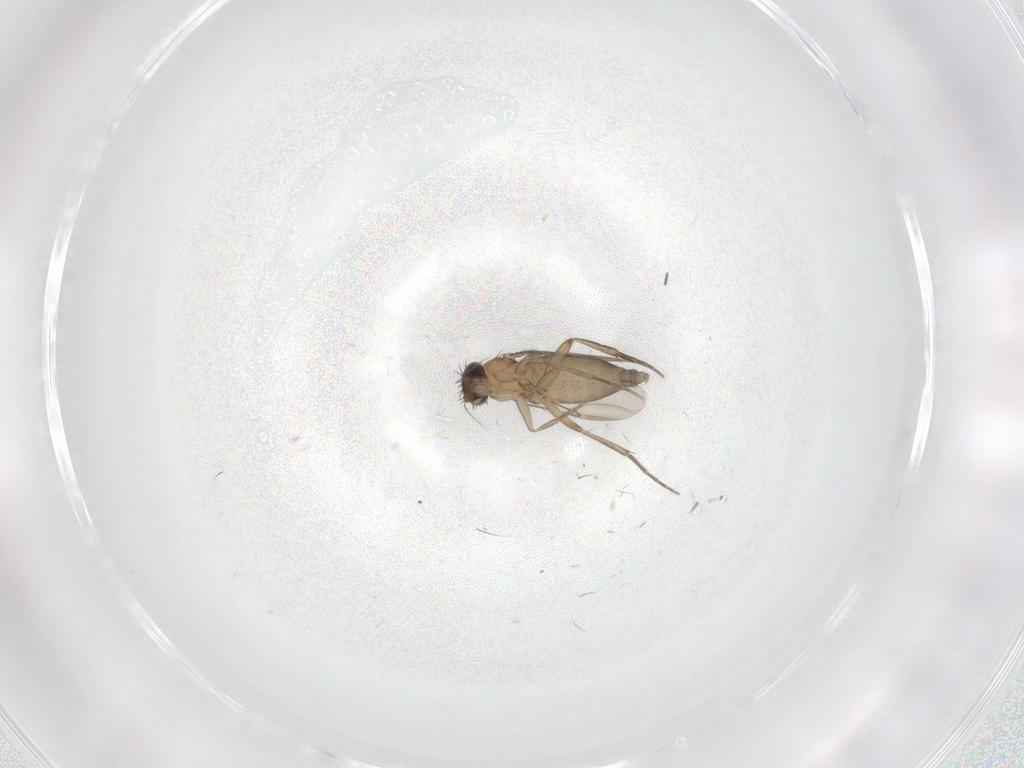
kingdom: Animalia
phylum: Arthropoda
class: Insecta
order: Diptera
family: Phoridae
